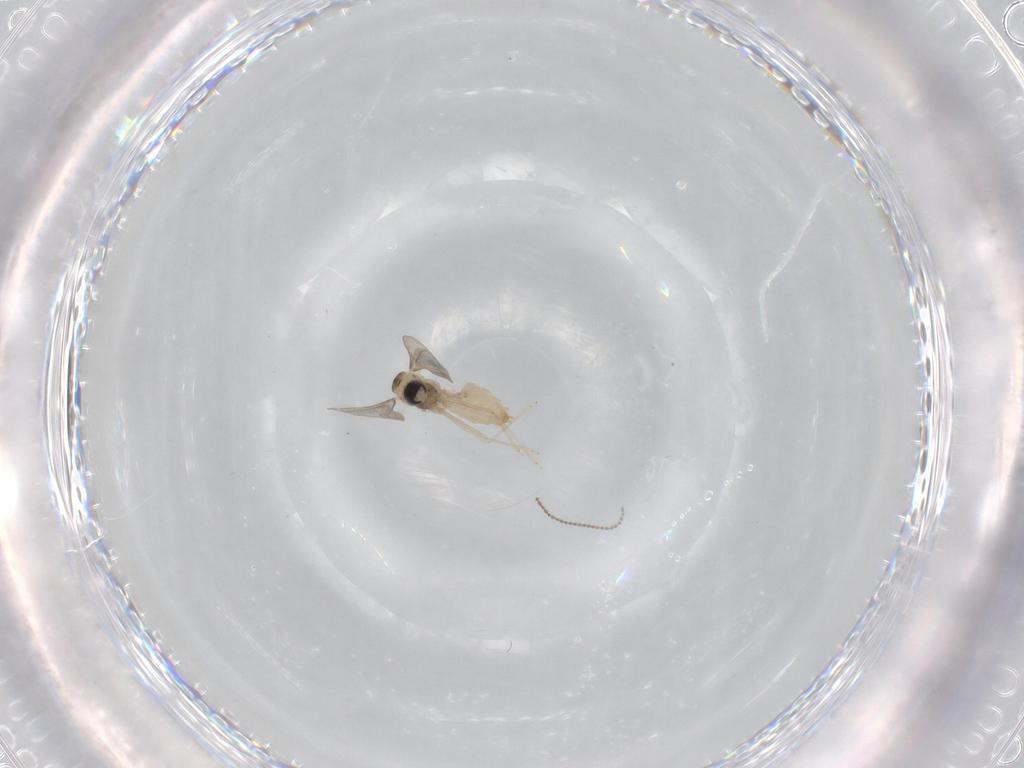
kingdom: Animalia
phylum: Arthropoda
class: Insecta
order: Diptera
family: Cecidomyiidae
